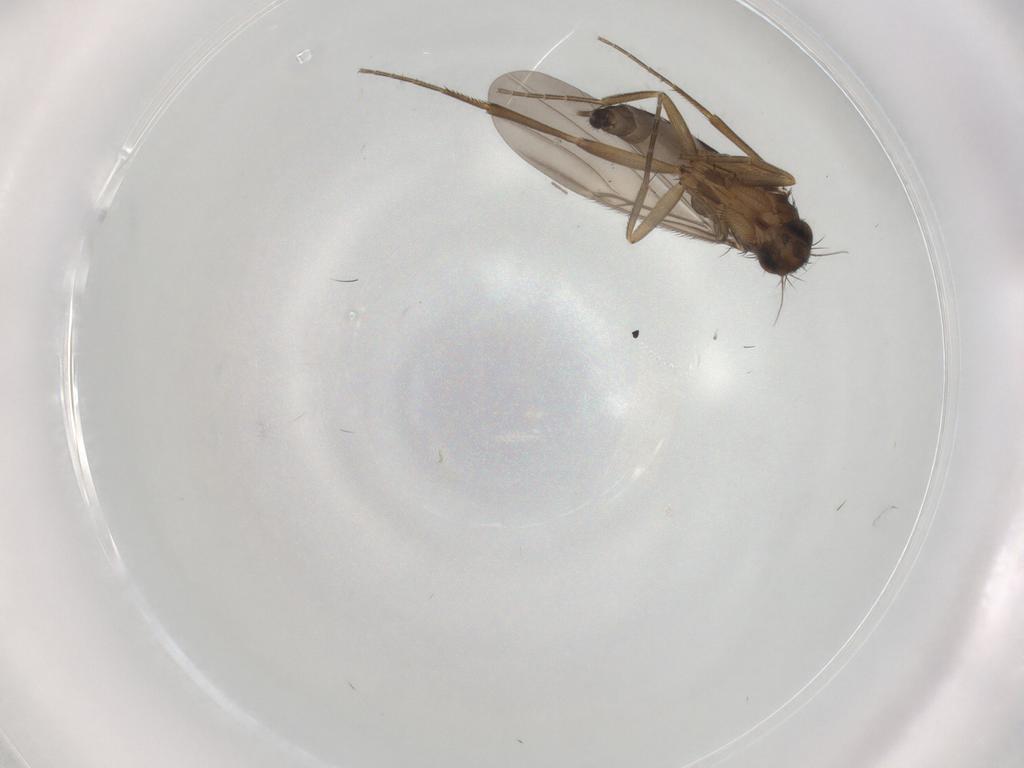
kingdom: Animalia
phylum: Arthropoda
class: Insecta
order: Diptera
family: Phoridae
